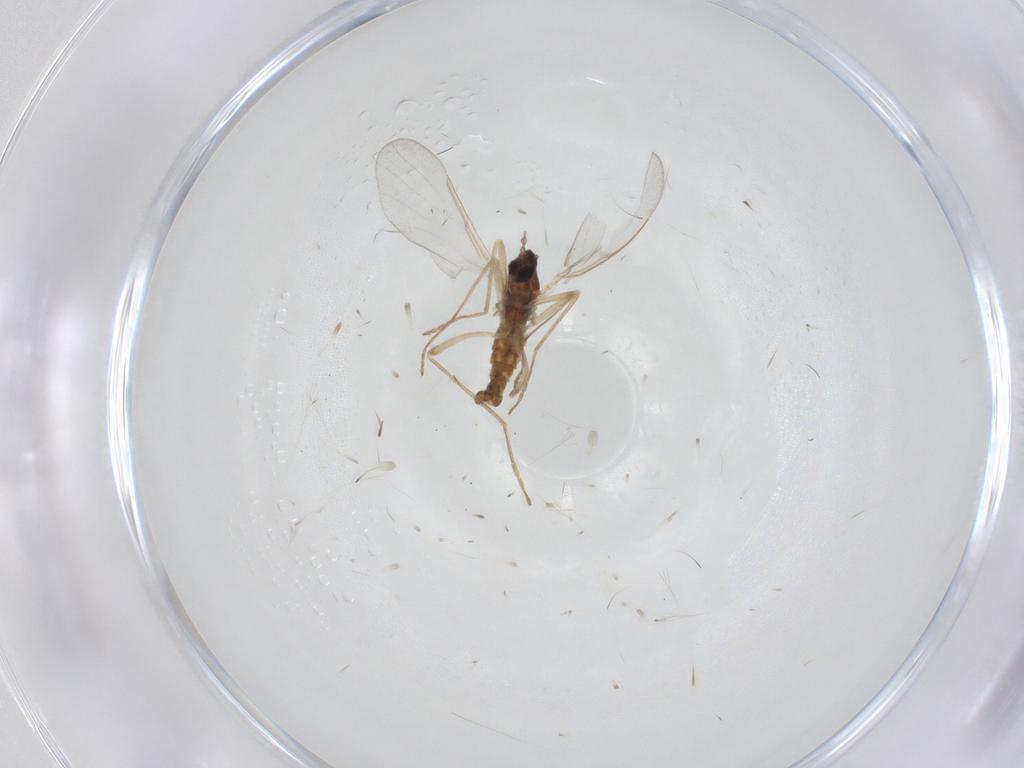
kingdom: Animalia
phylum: Arthropoda
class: Insecta
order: Diptera
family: Cecidomyiidae
